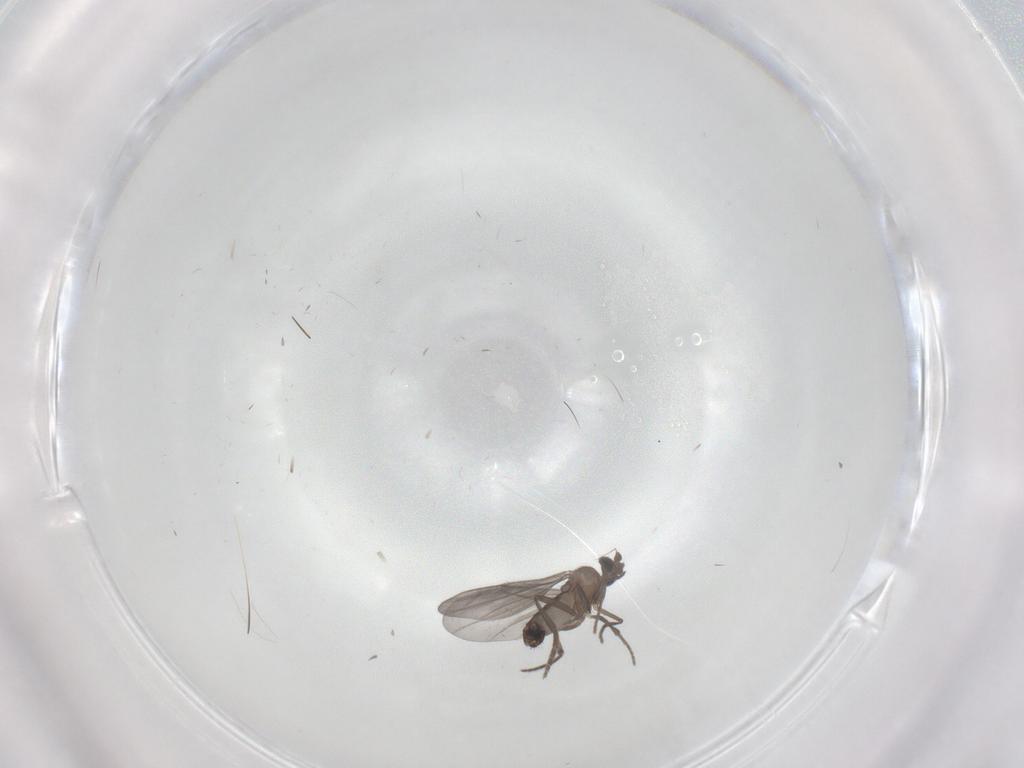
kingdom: Animalia
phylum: Arthropoda
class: Insecta
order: Diptera
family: Phoridae
